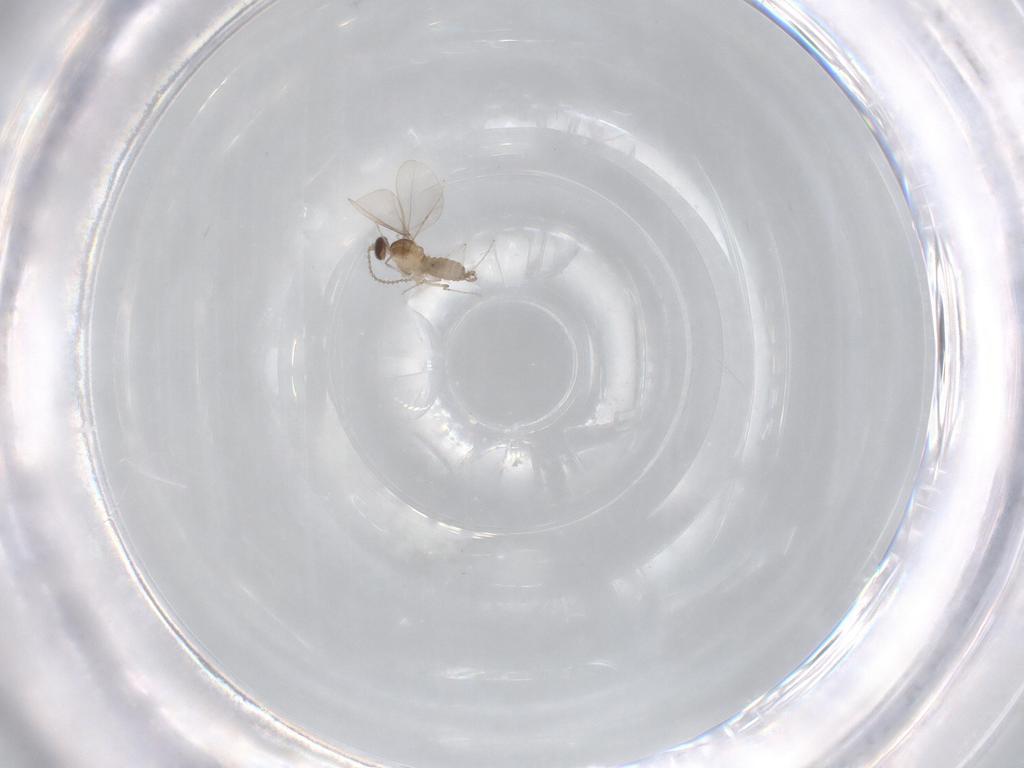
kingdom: Animalia
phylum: Arthropoda
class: Insecta
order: Diptera
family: Cecidomyiidae
